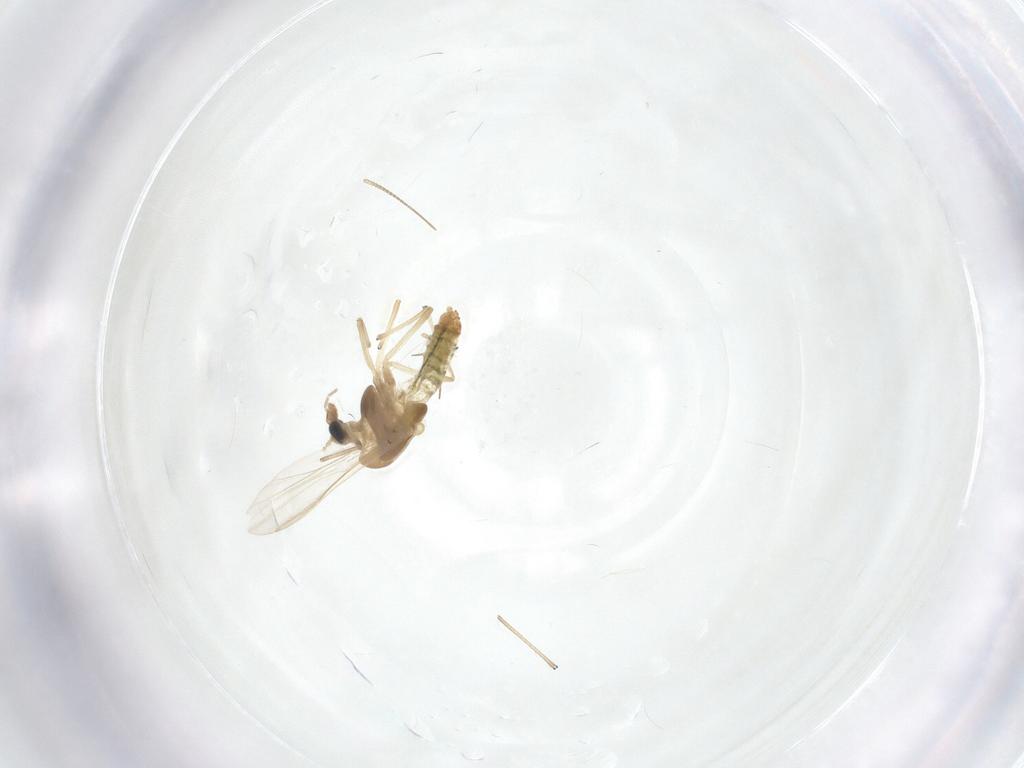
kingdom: Animalia
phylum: Arthropoda
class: Insecta
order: Diptera
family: Chironomidae
